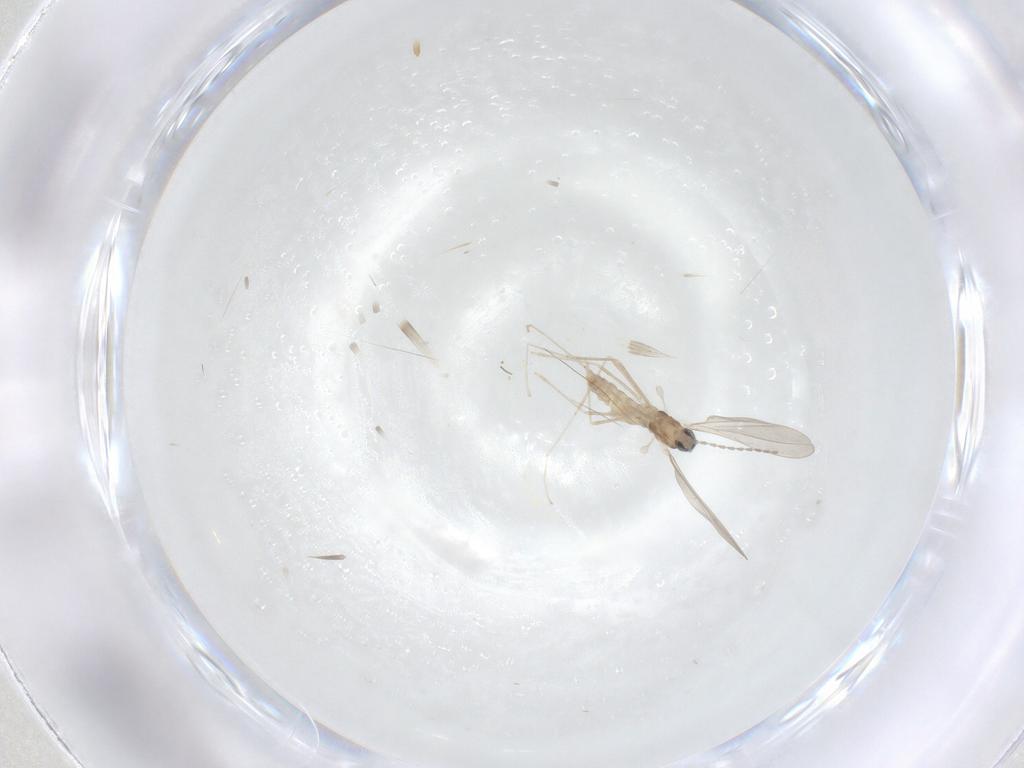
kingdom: Animalia
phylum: Arthropoda
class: Insecta
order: Diptera
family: Cecidomyiidae
